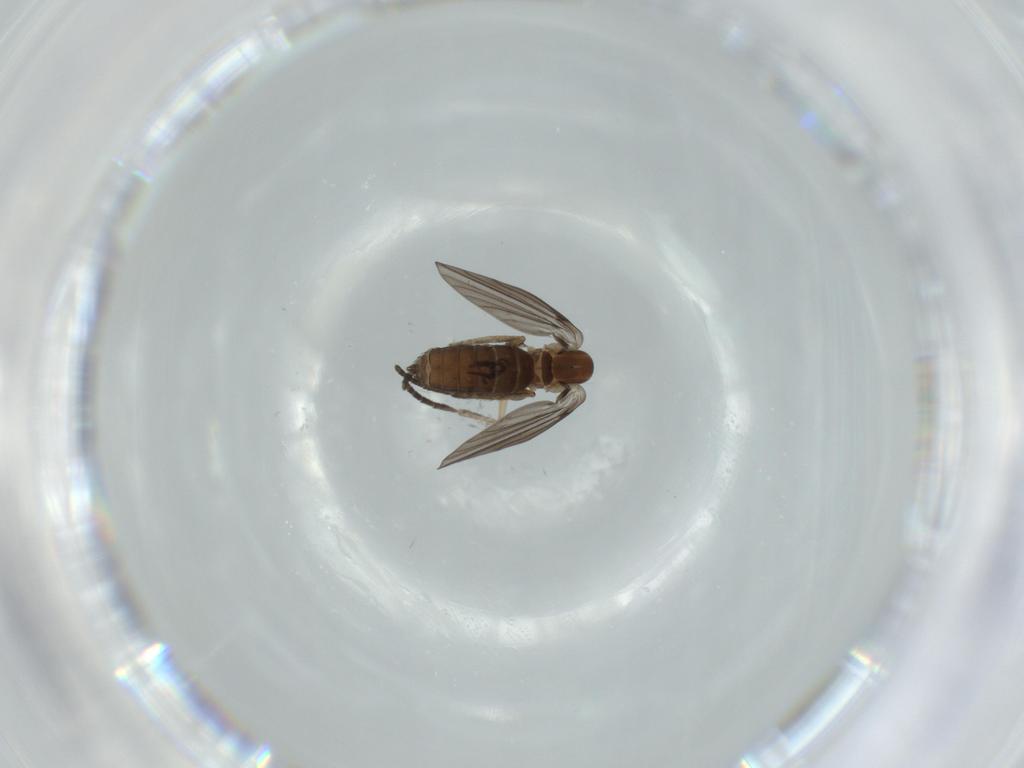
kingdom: Animalia
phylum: Arthropoda
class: Insecta
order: Diptera
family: Psychodidae
